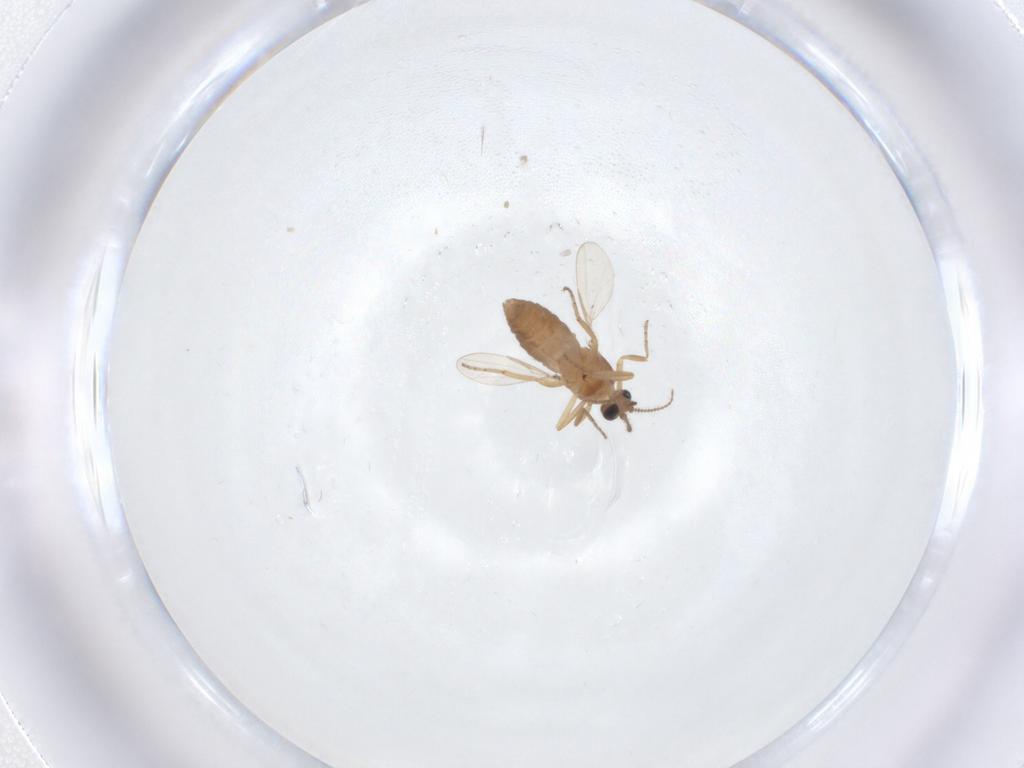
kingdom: Animalia
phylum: Arthropoda
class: Insecta
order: Diptera
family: Ceratopogonidae
